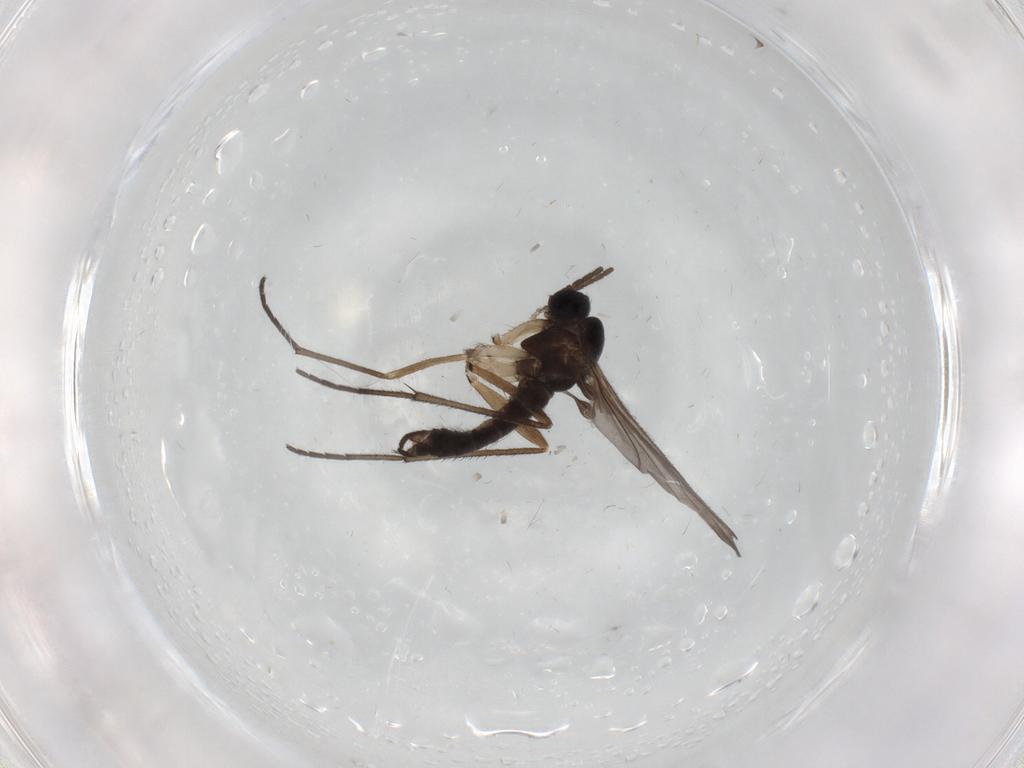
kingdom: Animalia
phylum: Arthropoda
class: Insecta
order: Diptera
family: Sciaridae
